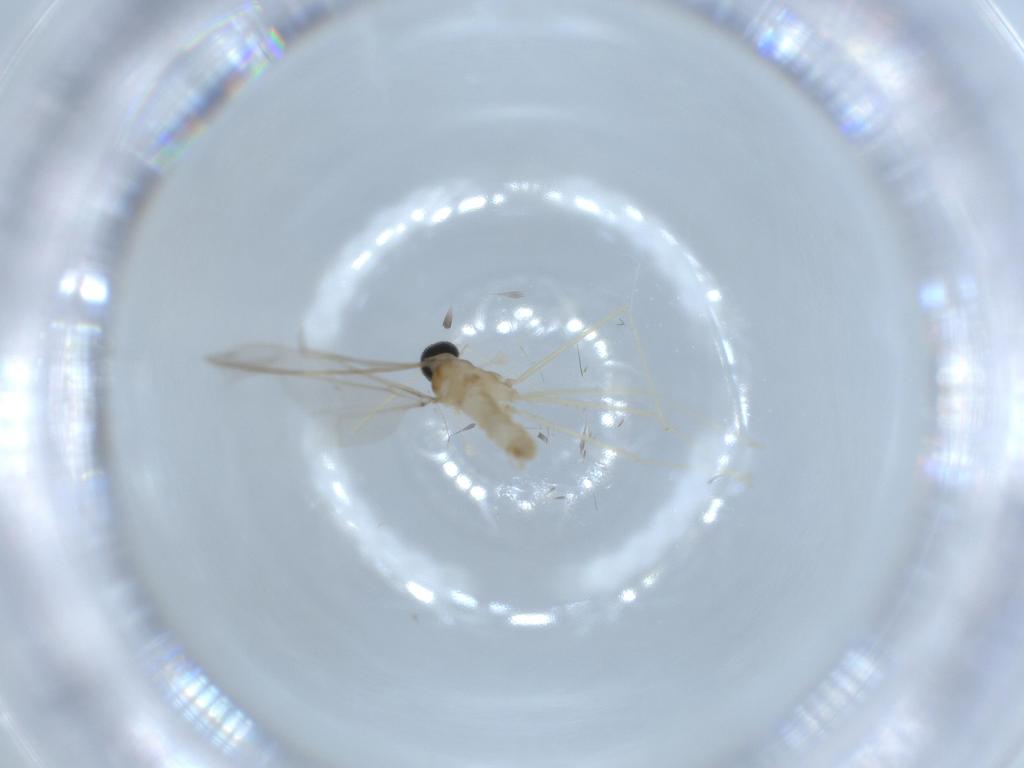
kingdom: Animalia
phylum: Arthropoda
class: Insecta
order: Diptera
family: Cecidomyiidae
